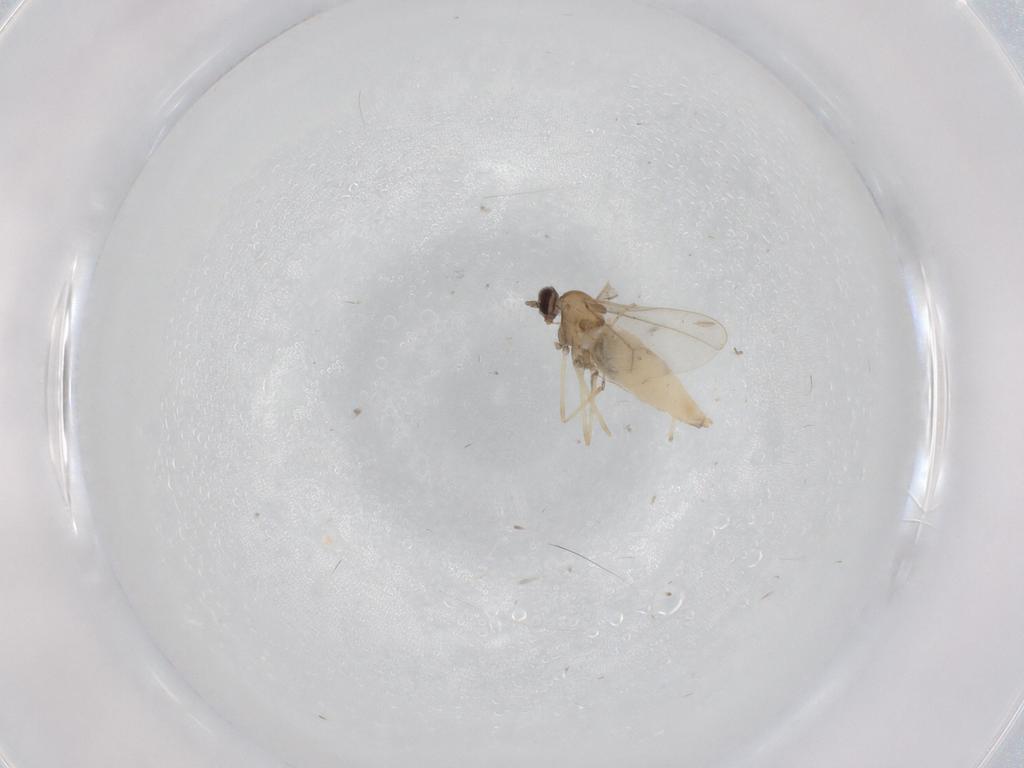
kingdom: Animalia
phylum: Arthropoda
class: Insecta
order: Diptera
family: Cecidomyiidae
